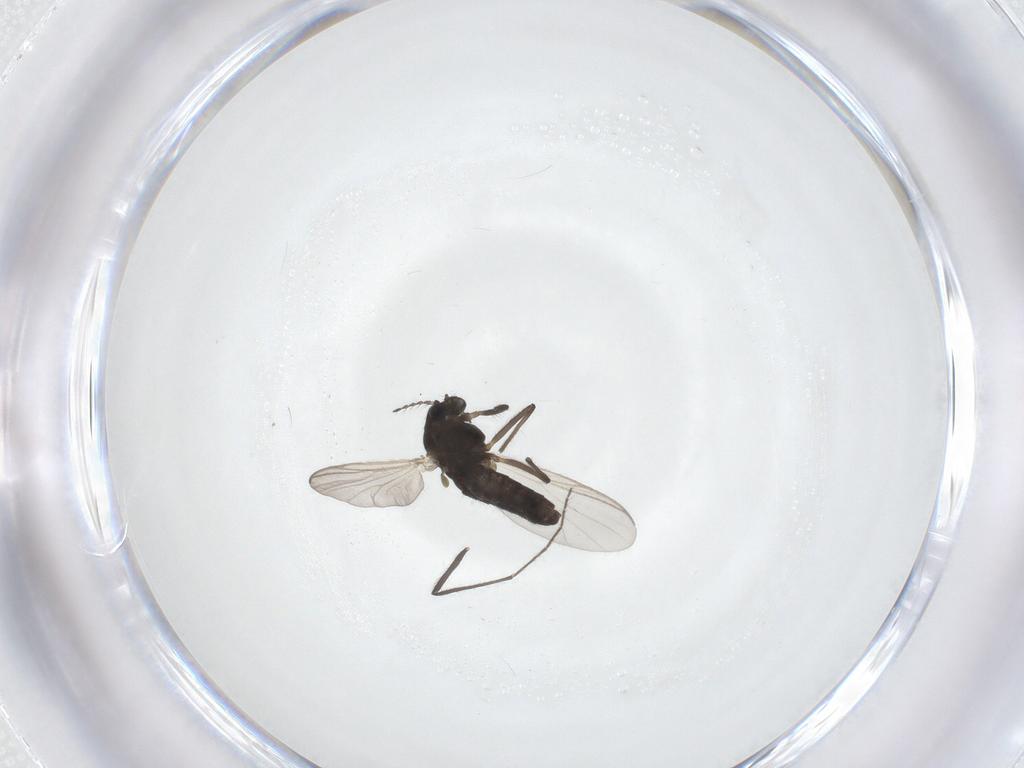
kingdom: Animalia
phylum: Arthropoda
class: Insecta
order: Diptera
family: Chironomidae
